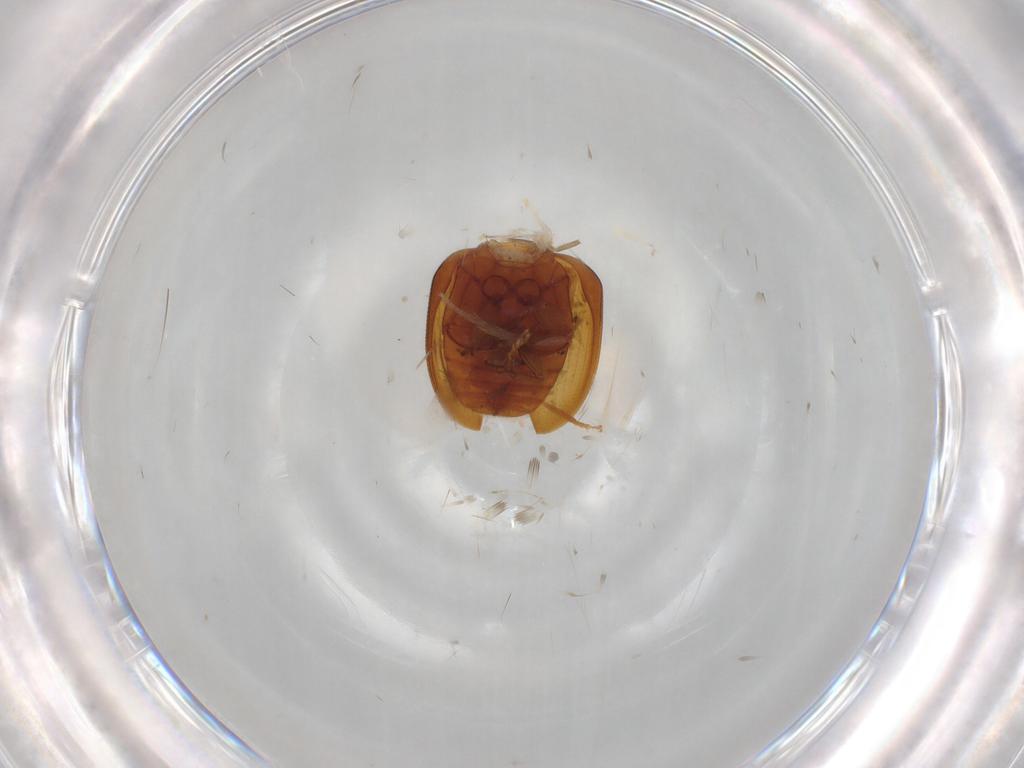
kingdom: Animalia
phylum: Arthropoda
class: Insecta
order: Coleoptera
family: Phalacridae
